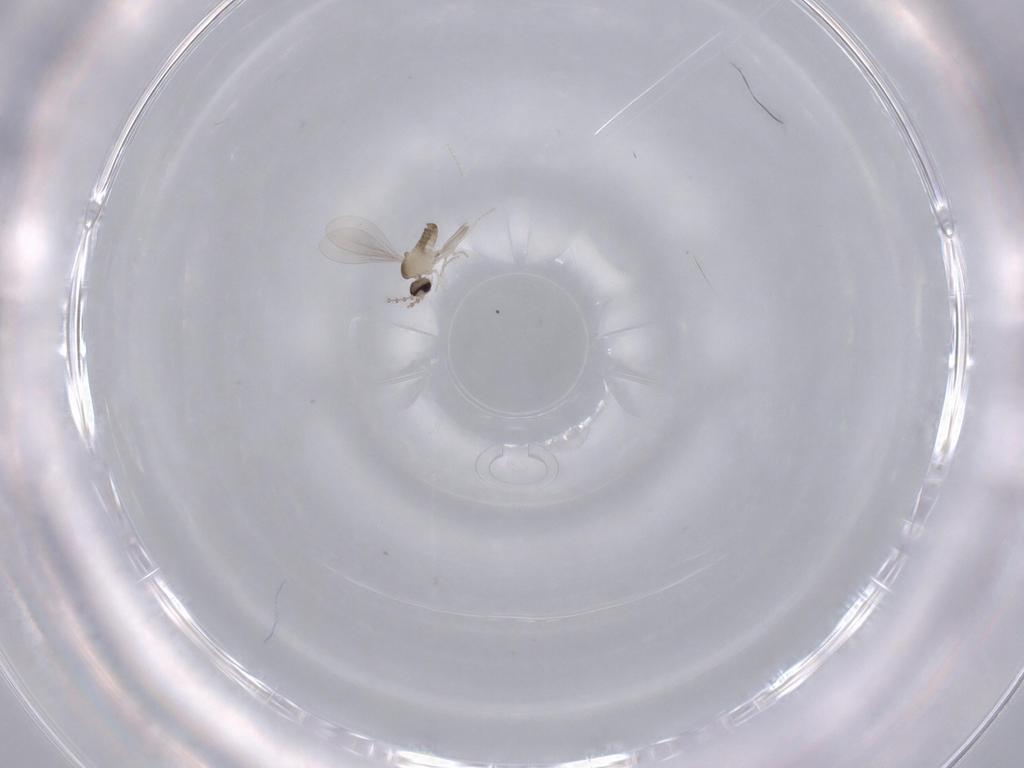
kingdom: Animalia
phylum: Arthropoda
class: Insecta
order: Diptera
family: Cecidomyiidae
